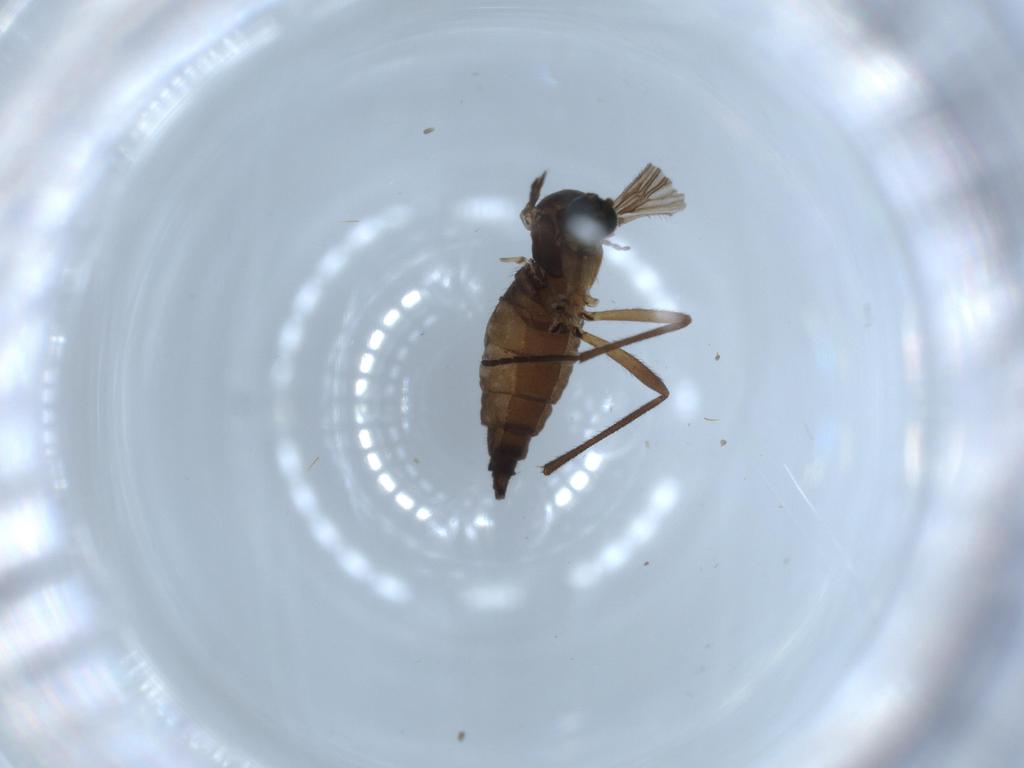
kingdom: Animalia
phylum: Arthropoda
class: Insecta
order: Diptera
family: Sciaridae
